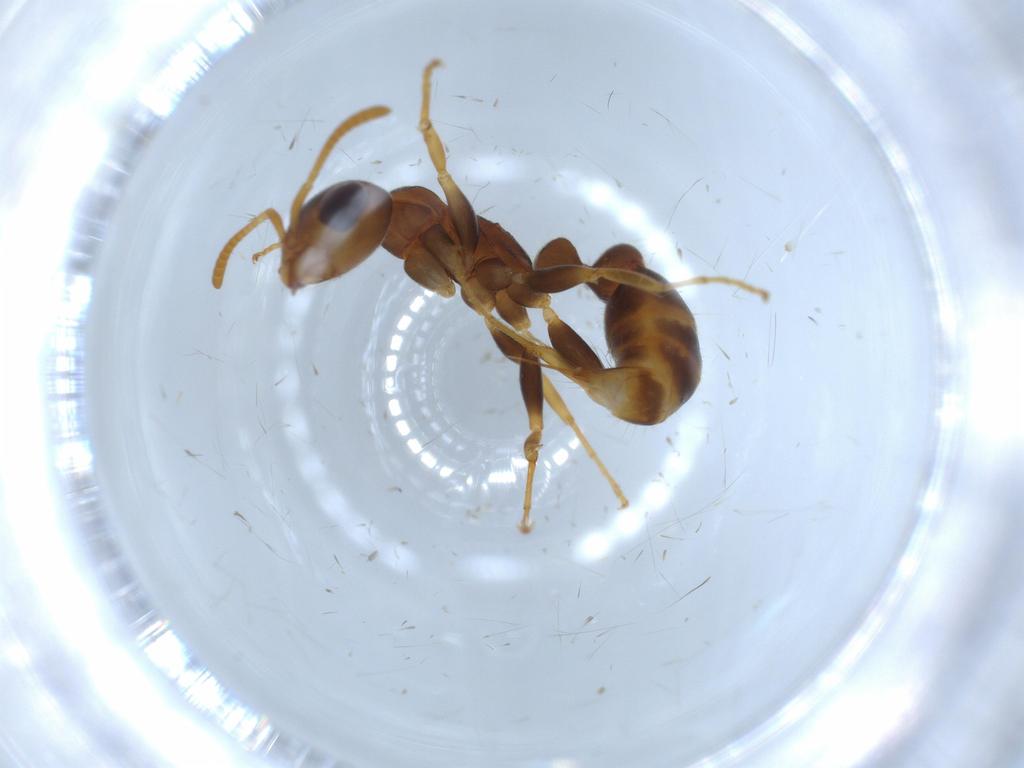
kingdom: Animalia
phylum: Arthropoda
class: Insecta
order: Hymenoptera
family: Formicidae
